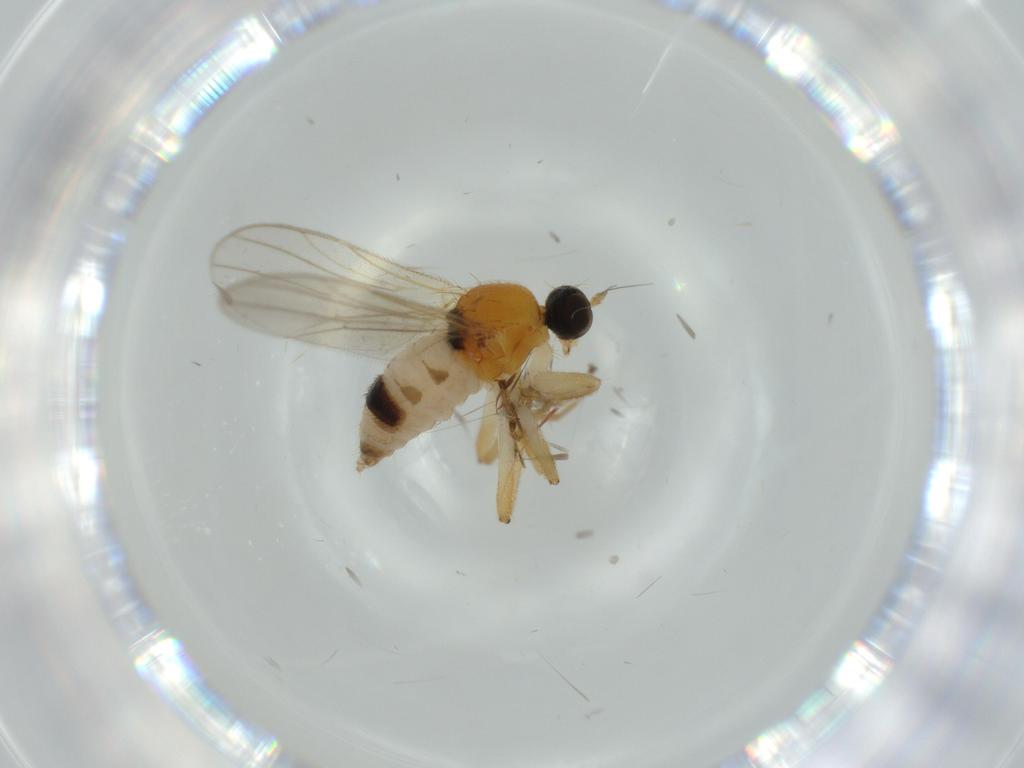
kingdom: Animalia
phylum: Arthropoda
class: Insecta
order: Diptera
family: Hybotidae
